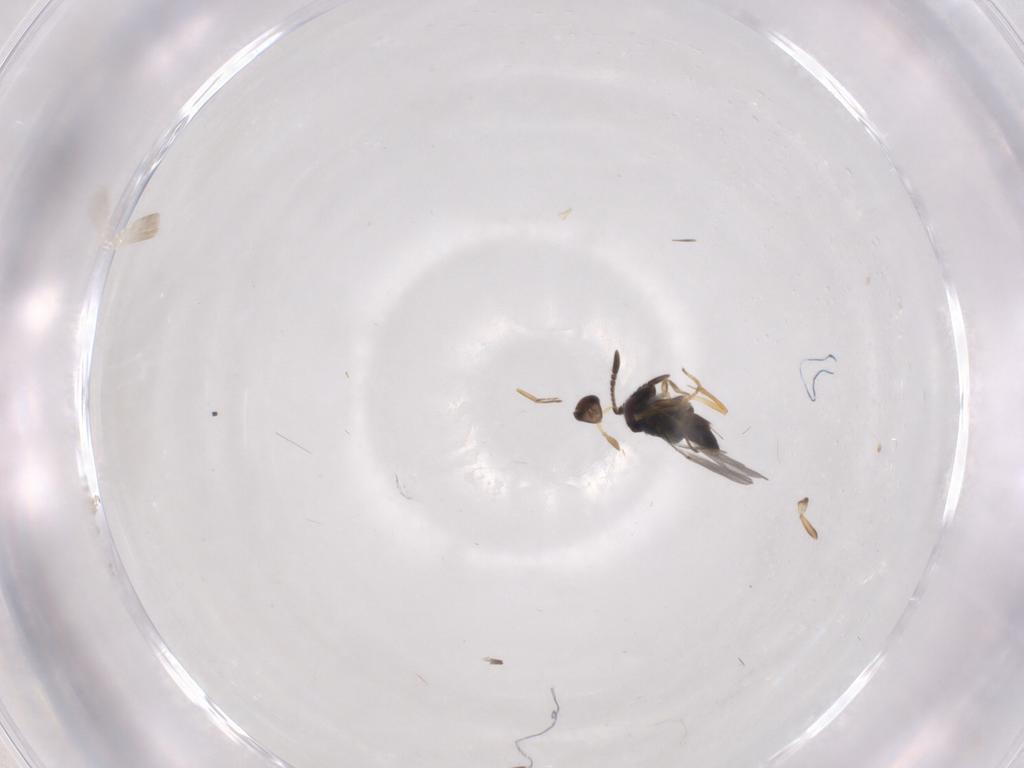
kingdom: Animalia
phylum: Arthropoda
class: Insecta
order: Hymenoptera
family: Encyrtidae
